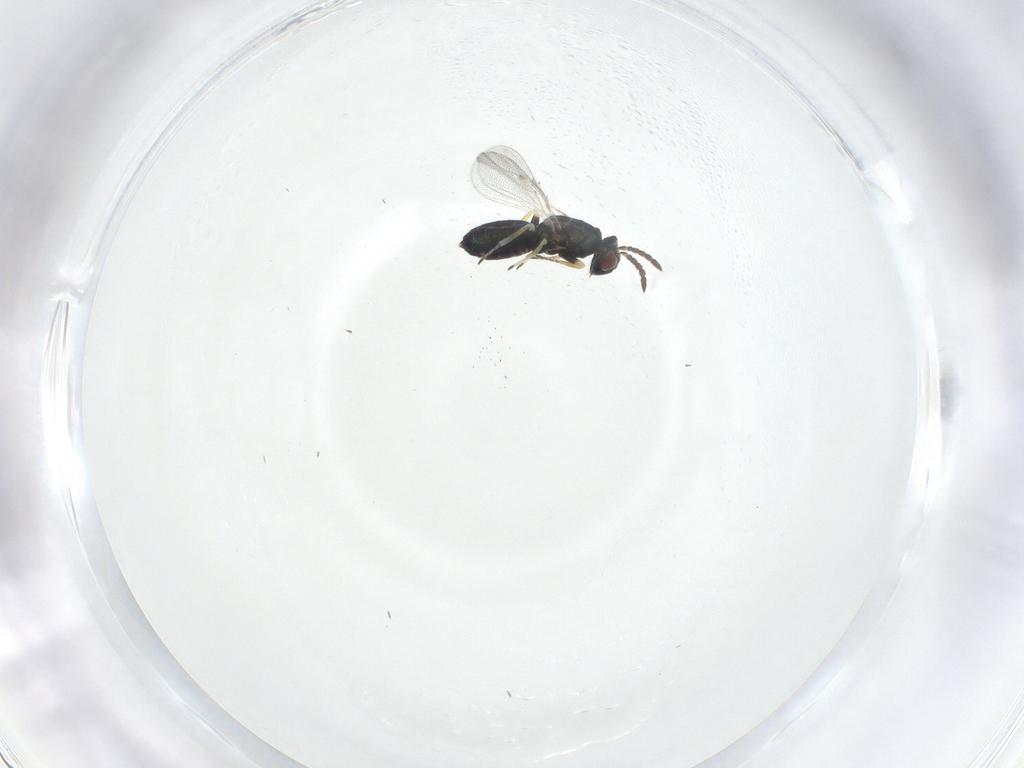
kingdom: Animalia
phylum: Arthropoda
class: Insecta
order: Hymenoptera
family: Eulophidae
